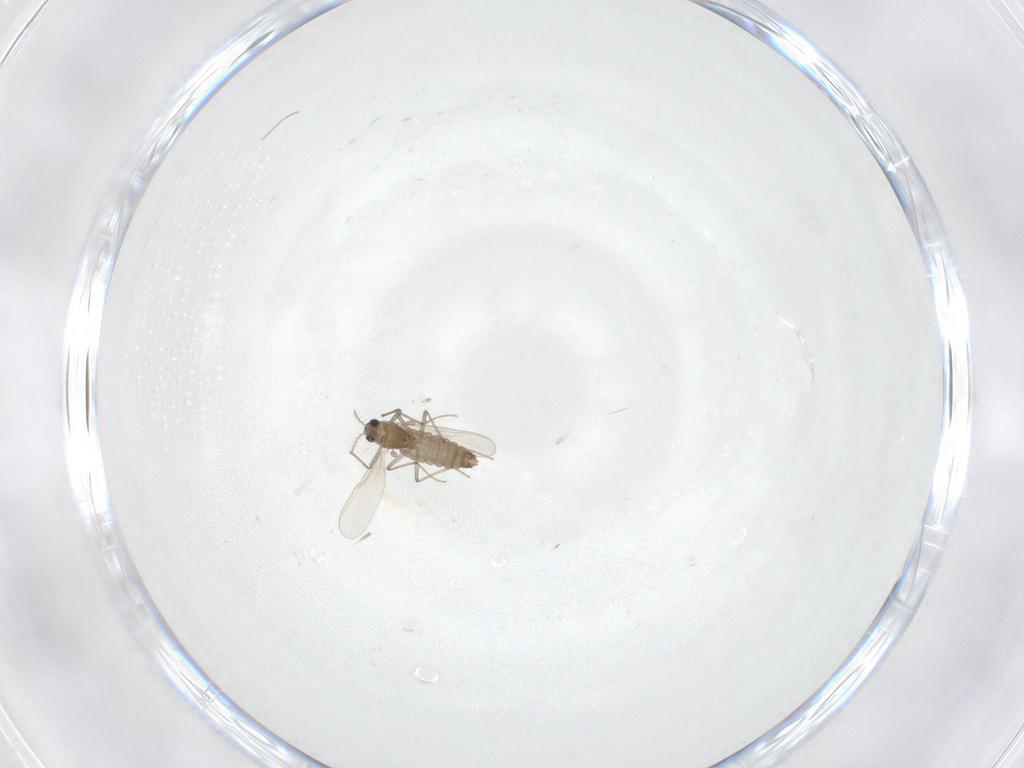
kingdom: Animalia
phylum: Arthropoda
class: Insecta
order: Diptera
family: Chironomidae
